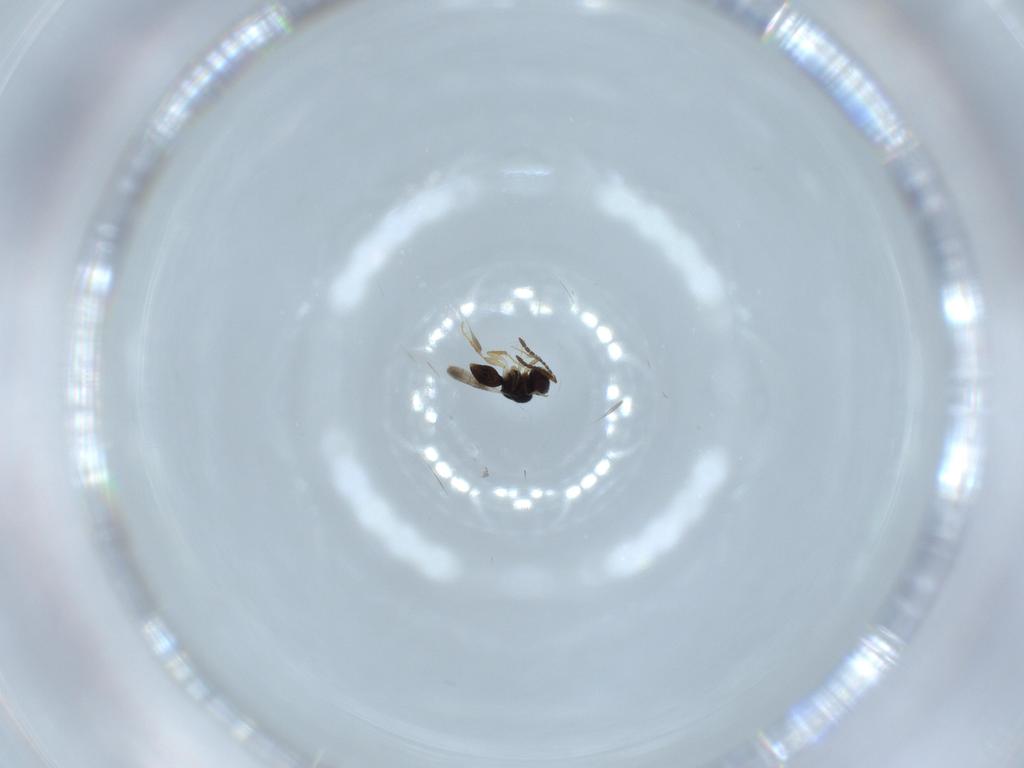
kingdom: Animalia
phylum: Arthropoda
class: Insecta
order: Hymenoptera
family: Ceraphronidae
